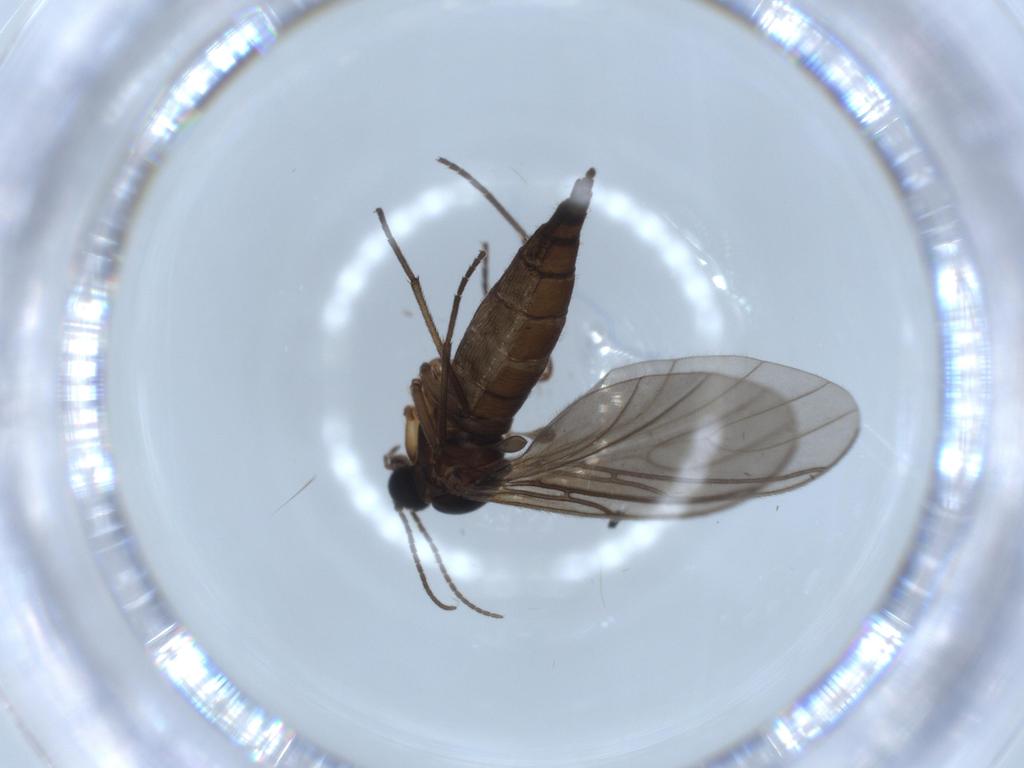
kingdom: Animalia
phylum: Arthropoda
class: Insecta
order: Diptera
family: Sciaridae
